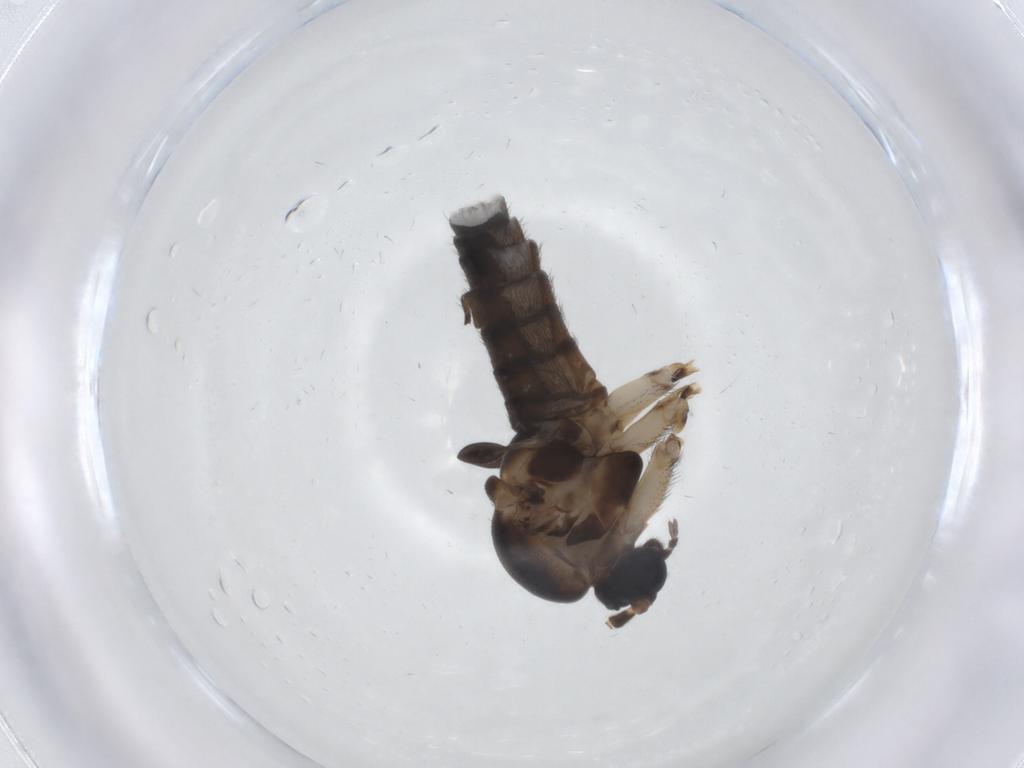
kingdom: Animalia
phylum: Arthropoda
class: Insecta
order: Diptera
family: Sciaridae
